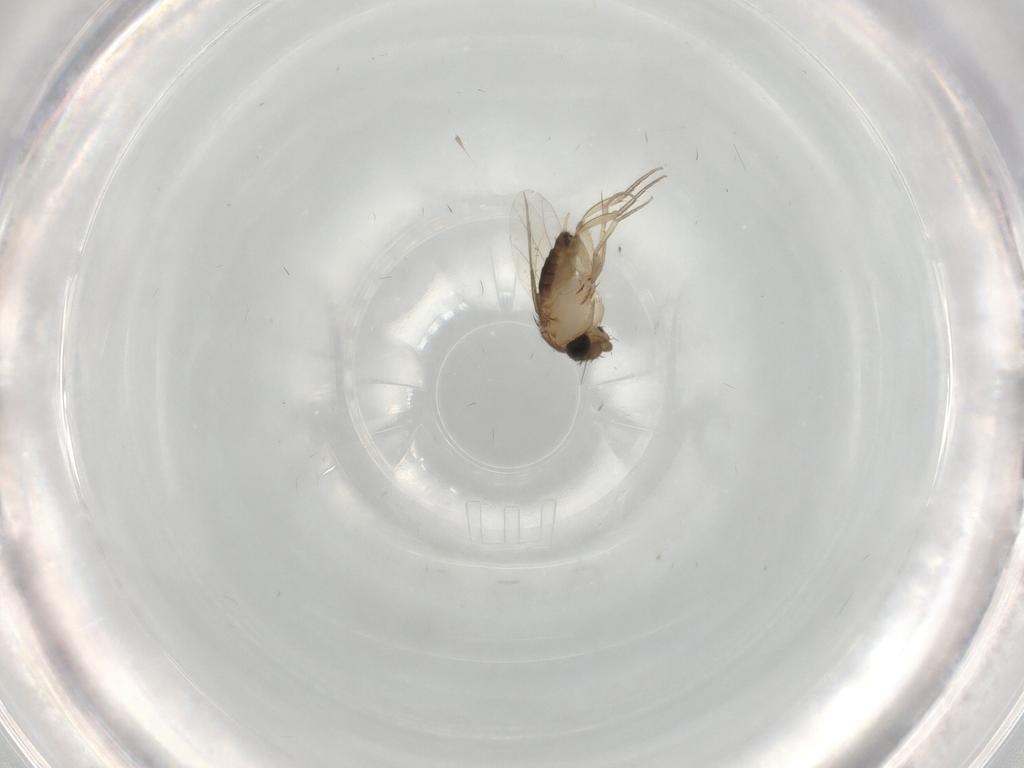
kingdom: Animalia
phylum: Arthropoda
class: Insecta
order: Diptera
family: Phoridae
